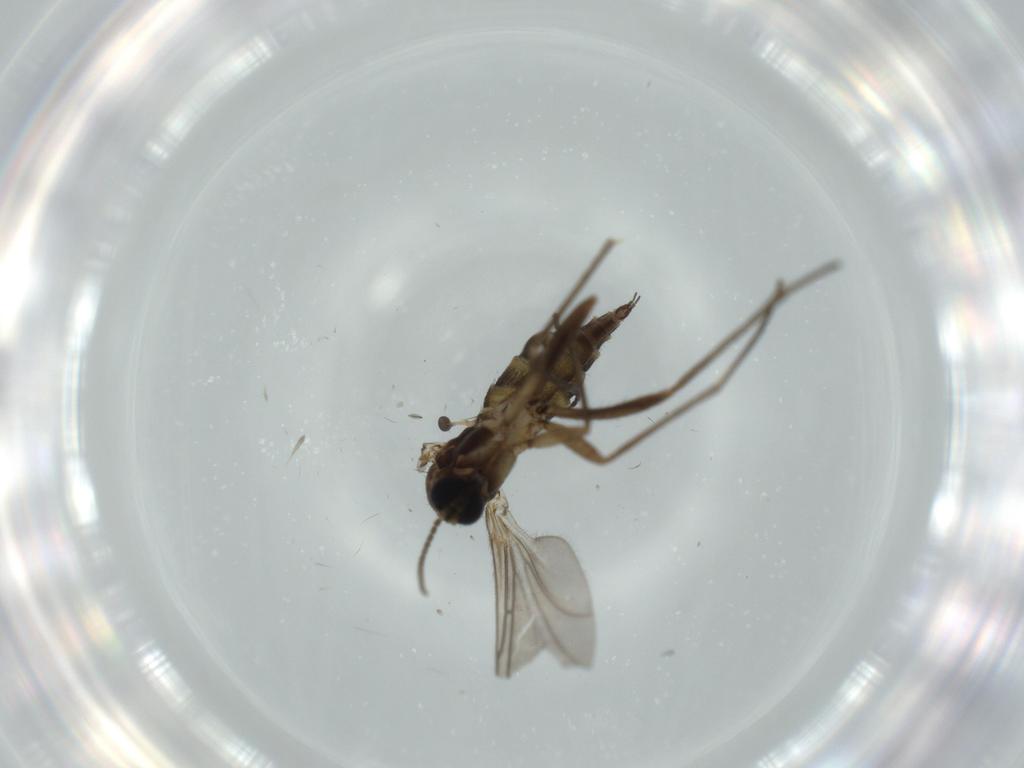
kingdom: Animalia
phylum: Arthropoda
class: Insecta
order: Diptera
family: Sciaridae
